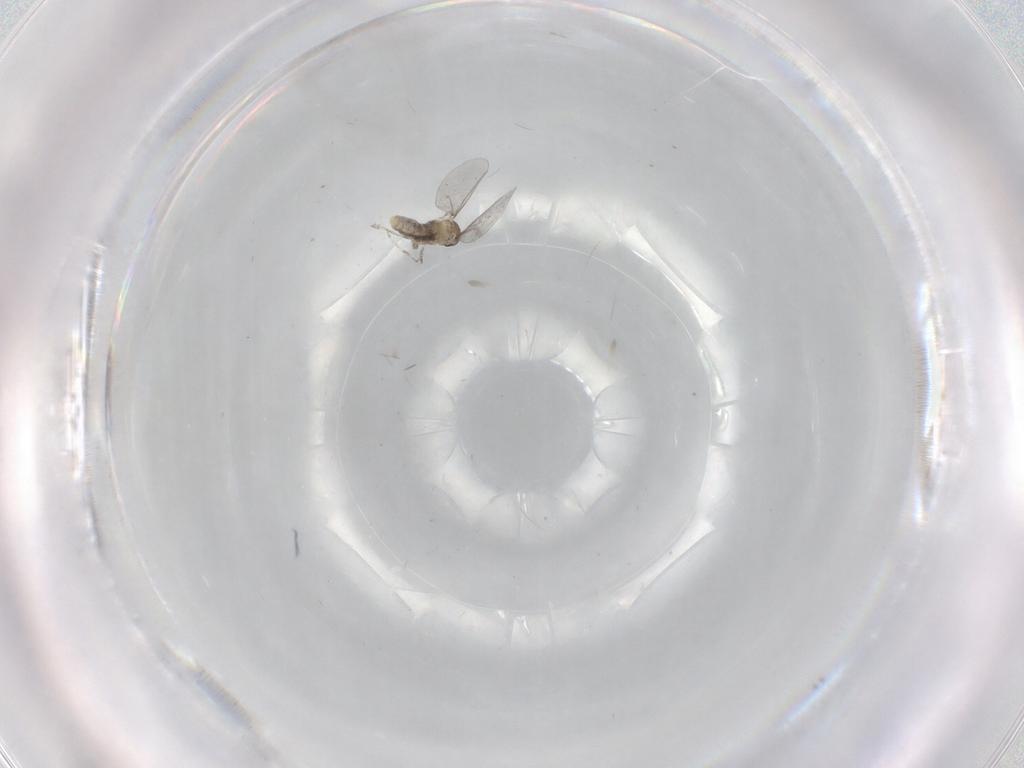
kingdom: Animalia
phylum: Arthropoda
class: Insecta
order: Diptera
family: Cecidomyiidae
